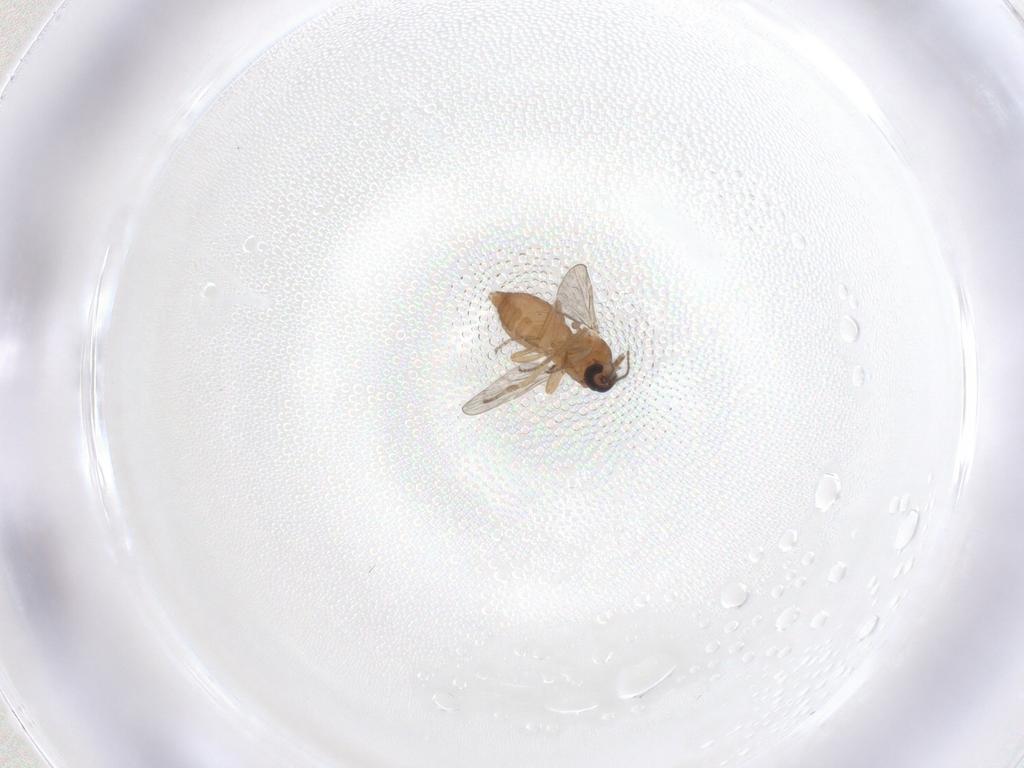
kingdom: Animalia
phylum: Arthropoda
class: Insecta
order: Diptera
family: Ceratopogonidae
